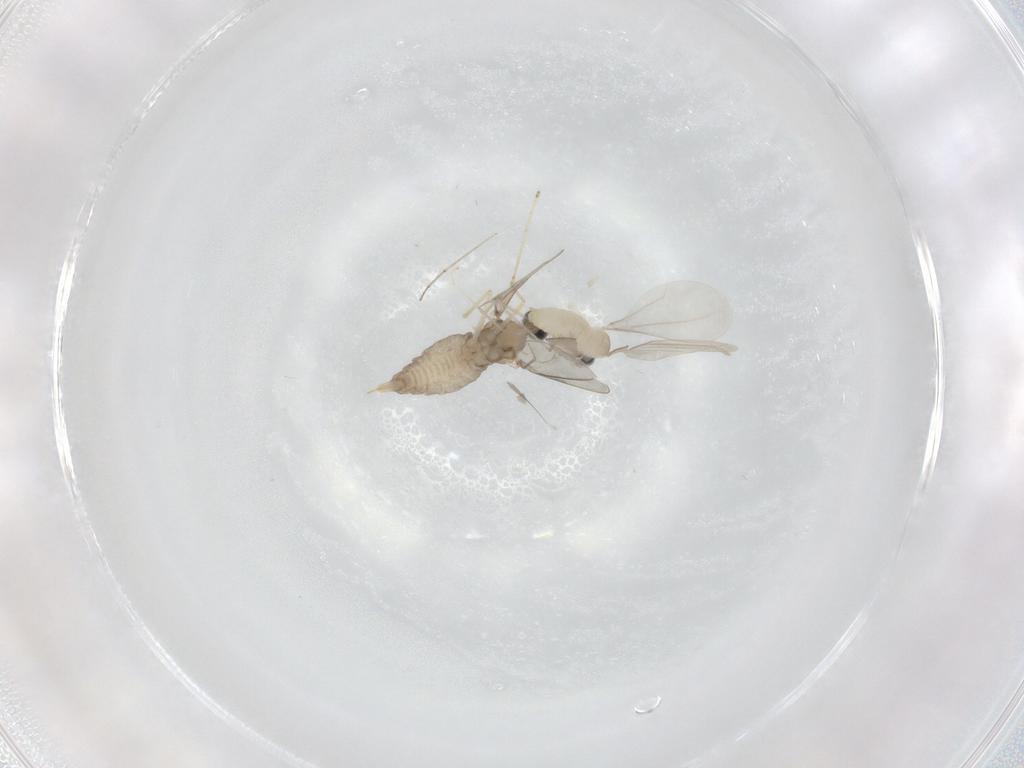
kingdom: Animalia
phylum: Arthropoda
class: Insecta
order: Diptera
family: Cecidomyiidae
